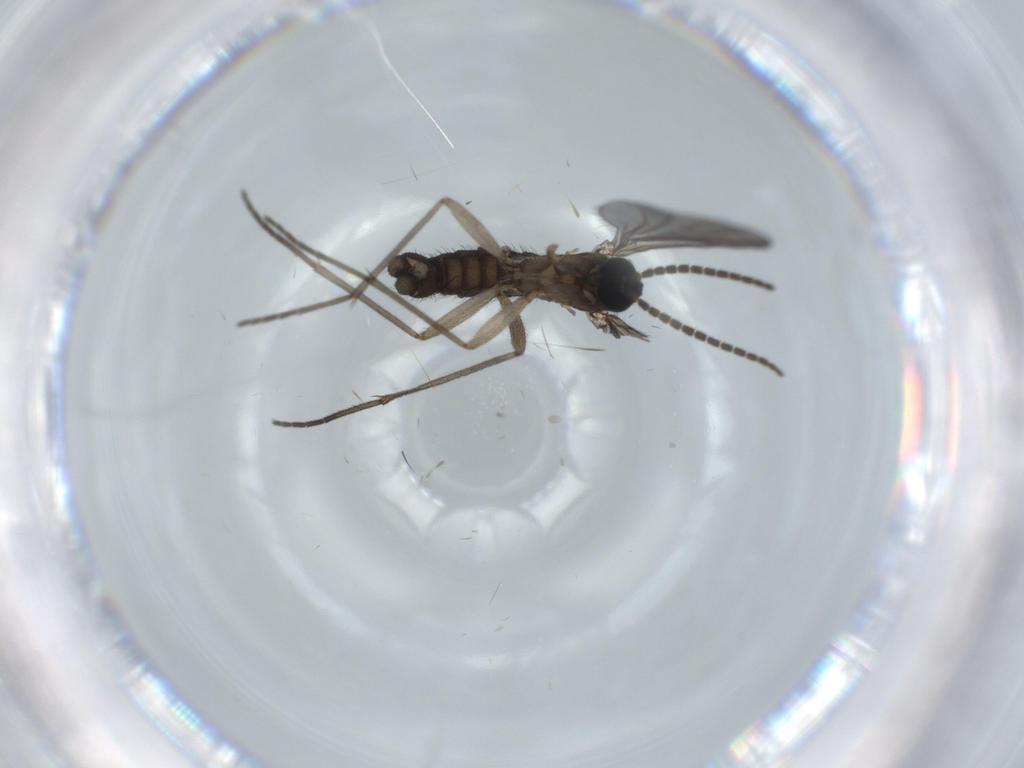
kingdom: Animalia
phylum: Arthropoda
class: Insecta
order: Diptera
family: Sciaridae
